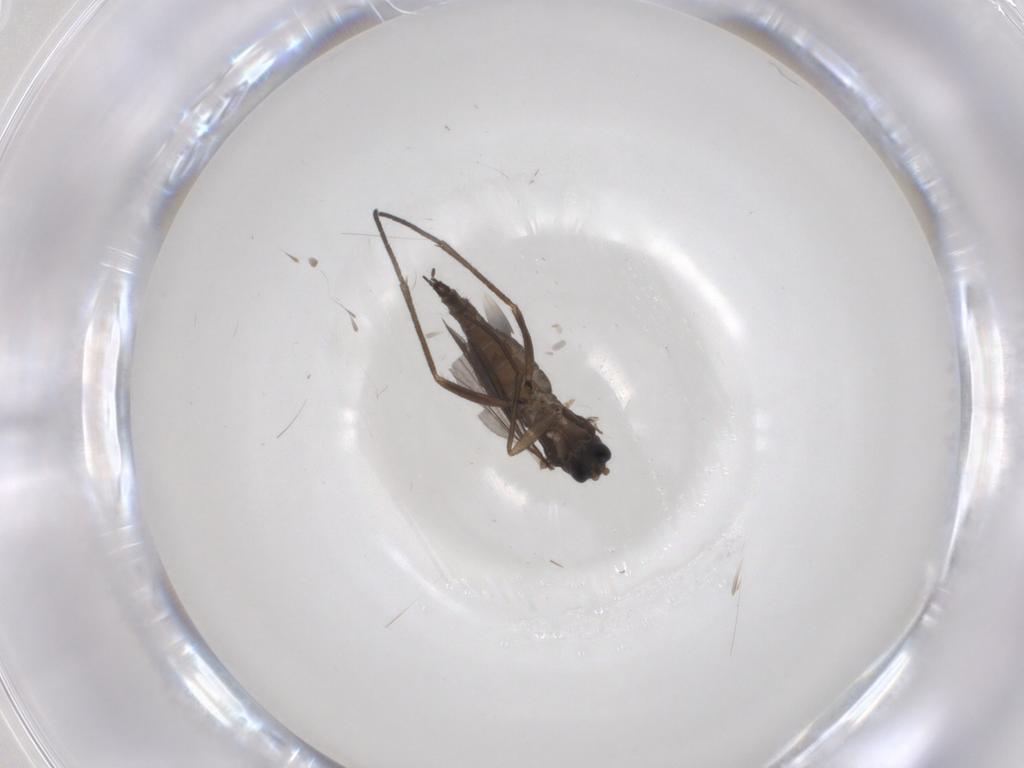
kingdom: Animalia
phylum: Arthropoda
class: Insecta
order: Diptera
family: Sciaridae
